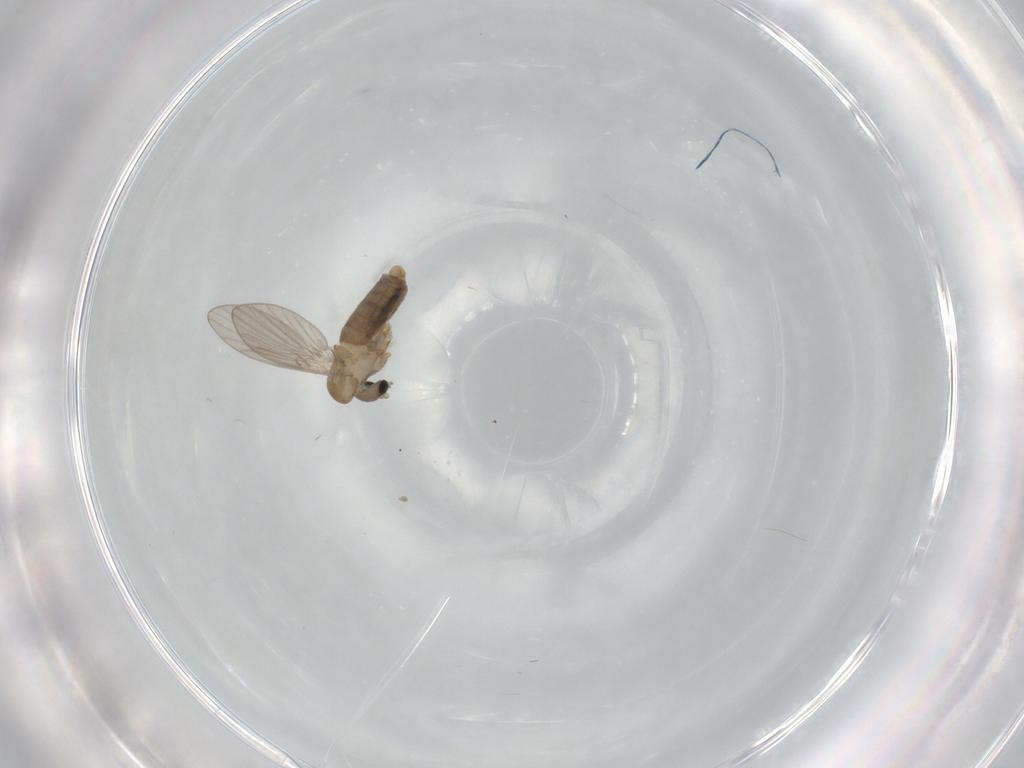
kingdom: Animalia
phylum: Arthropoda
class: Insecta
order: Diptera
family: Psychodidae
